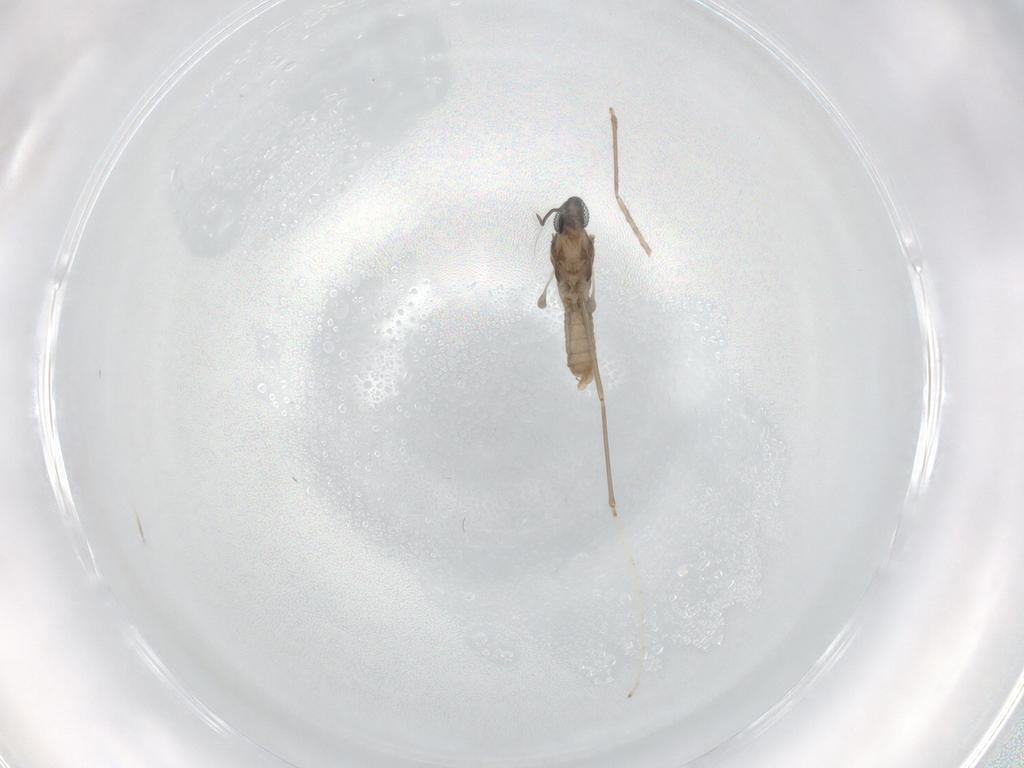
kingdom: Animalia
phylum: Arthropoda
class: Insecta
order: Diptera
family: Cecidomyiidae
